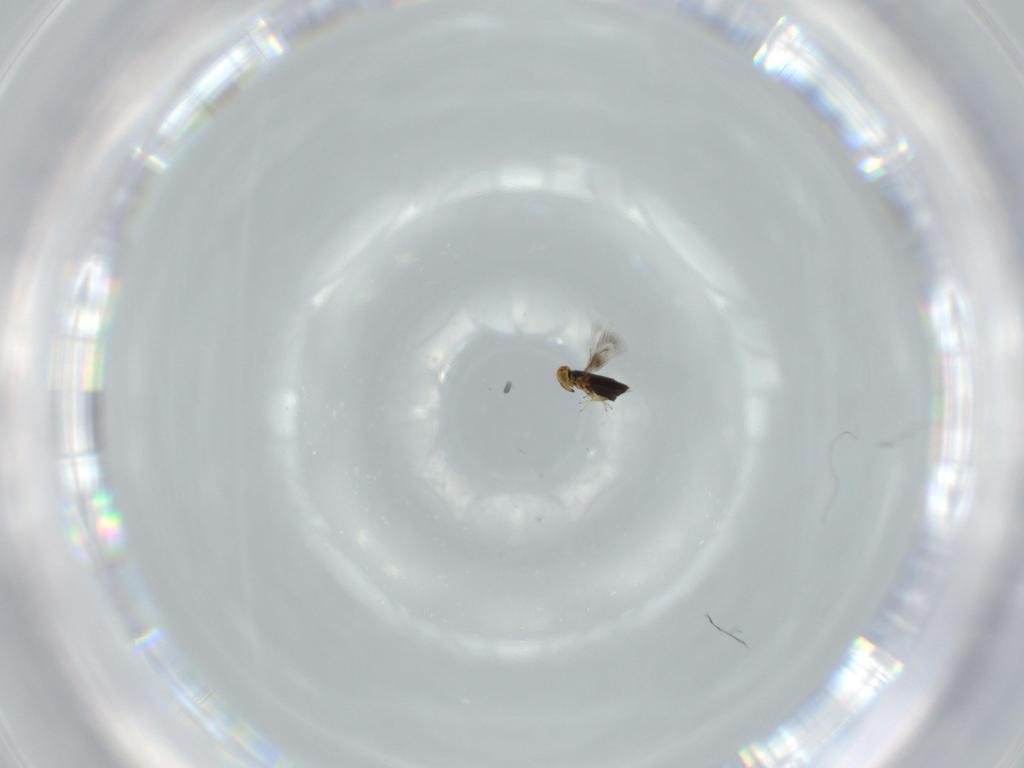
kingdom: Animalia
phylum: Arthropoda
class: Insecta
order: Hymenoptera
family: Signiphoridae
